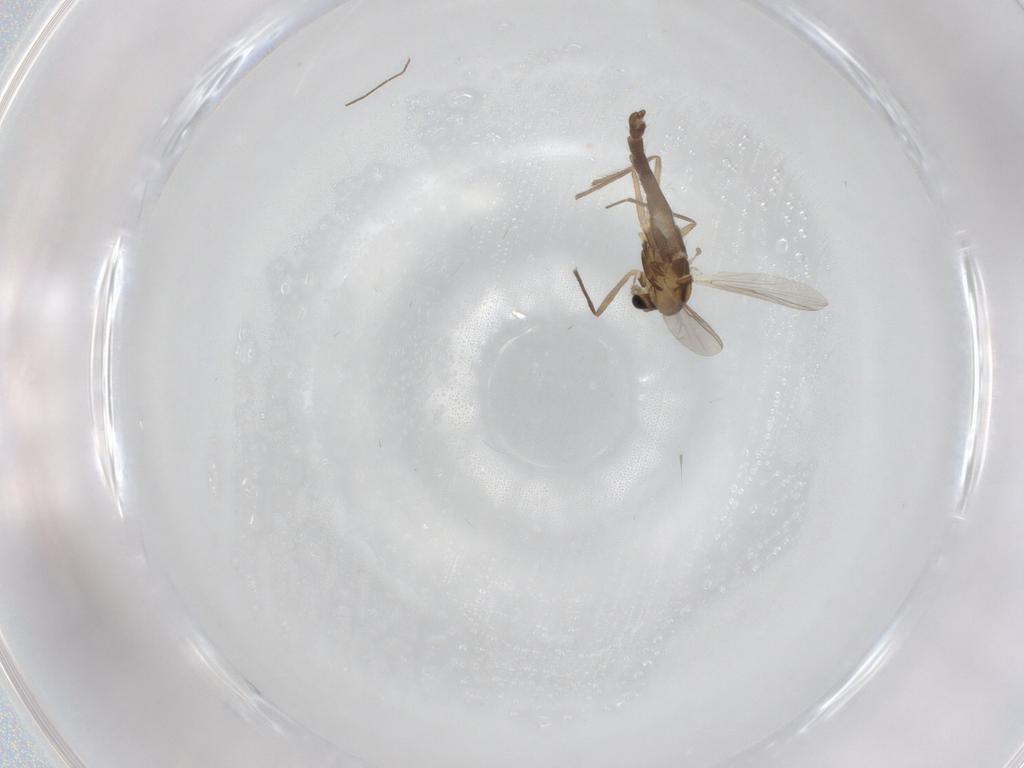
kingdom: Animalia
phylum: Arthropoda
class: Insecta
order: Diptera
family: Chironomidae
